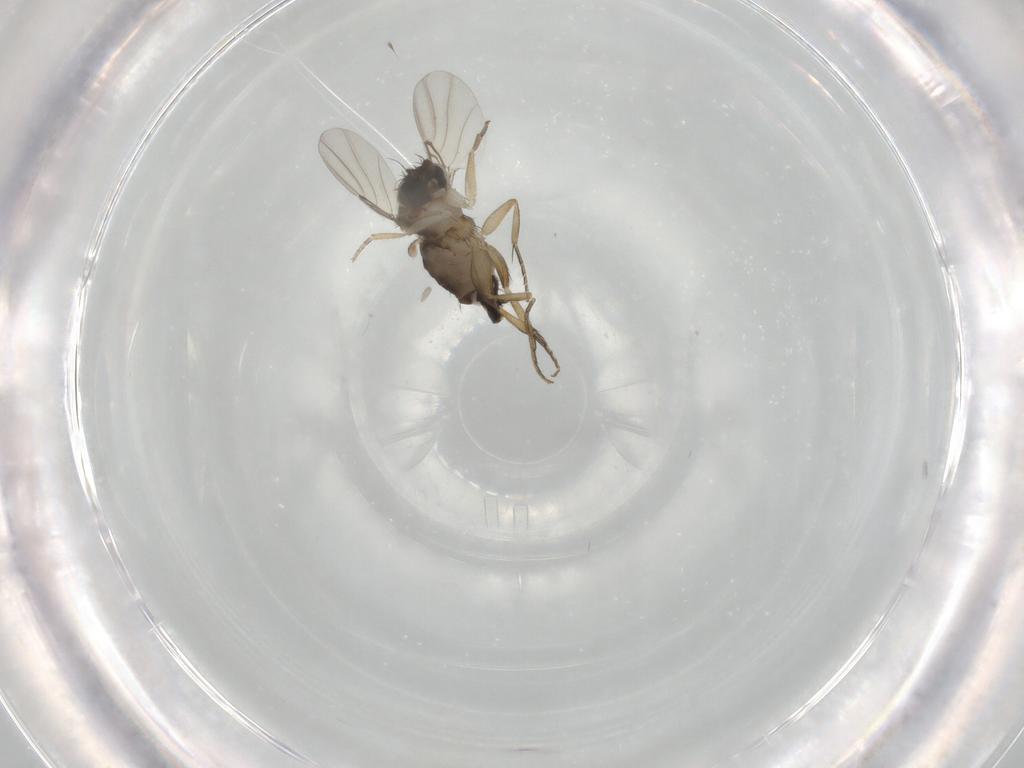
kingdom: Animalia
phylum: Arthropoda
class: Insecta
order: Diptera
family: Phoridae
